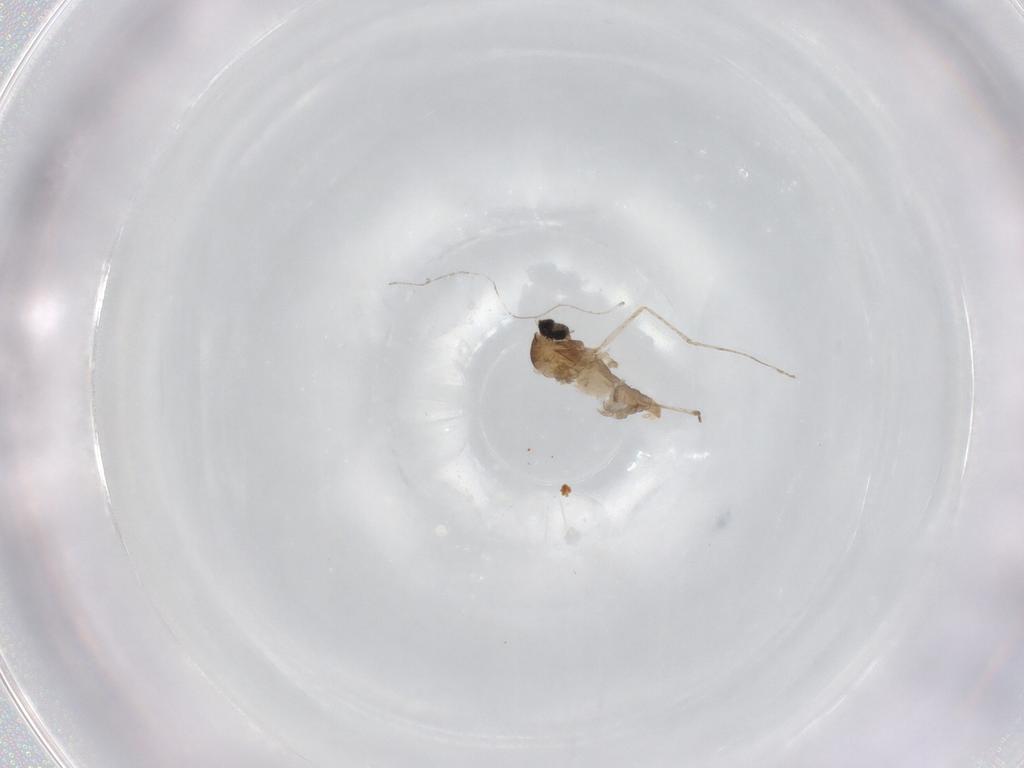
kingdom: Animalia
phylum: Arthropoda
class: Insecta
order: Diptera
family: Cecidomyiidae
